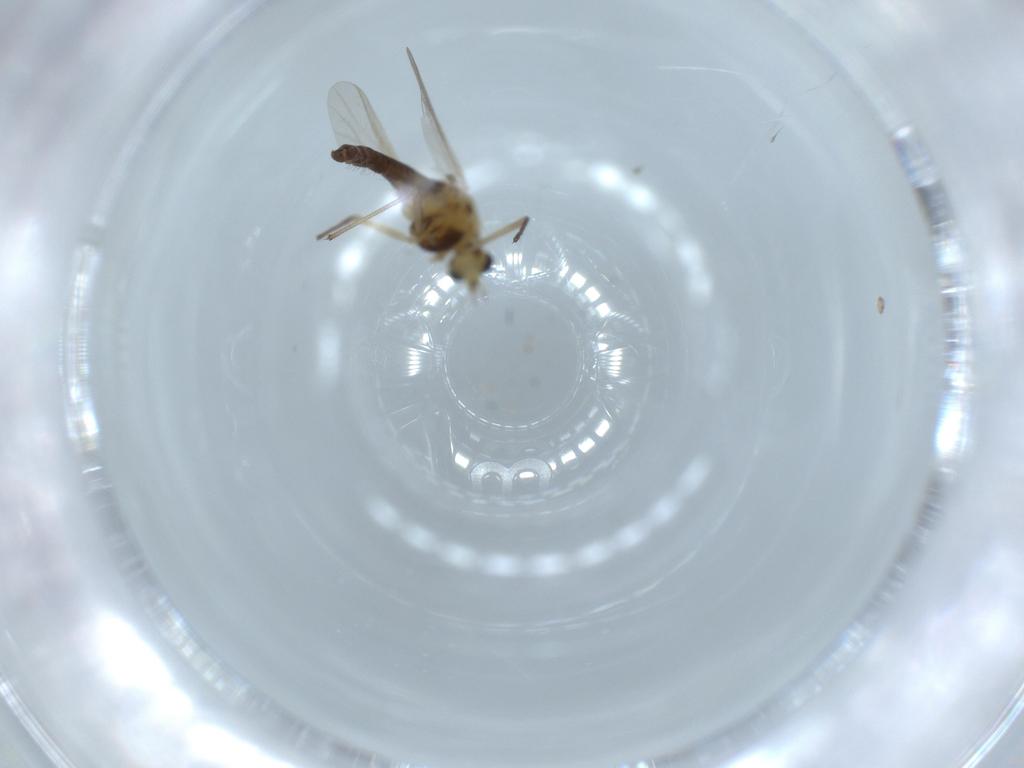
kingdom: Animalia
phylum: Arthropoda
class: Insecta
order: Diptera
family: Chironomidae
